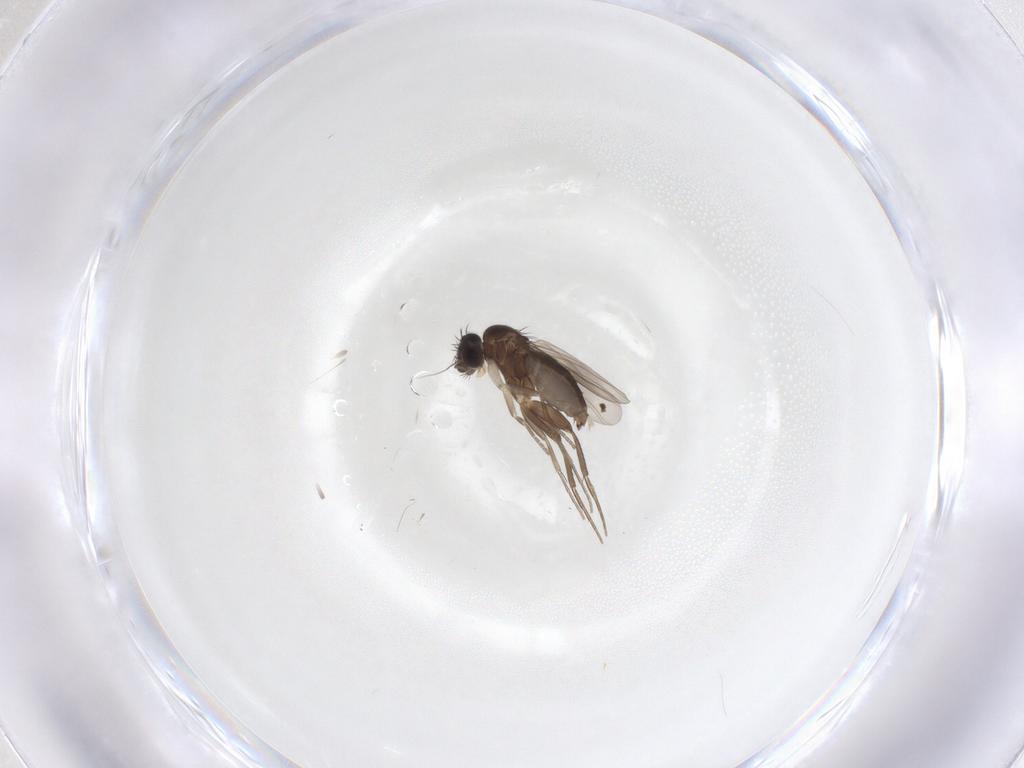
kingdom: Animalia
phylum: Arthropoda
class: Insecta
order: Diptera
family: Phoridae
